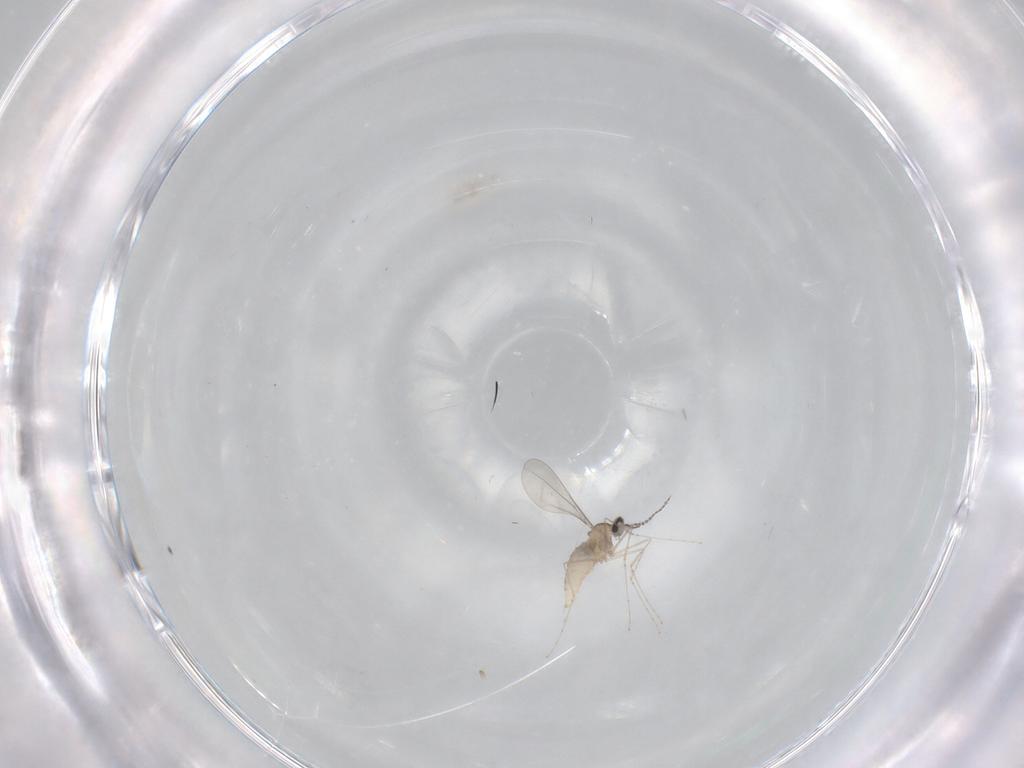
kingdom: Animalia
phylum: Arthropoda
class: Insecta
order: Diptera
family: Cecidomyiidae
